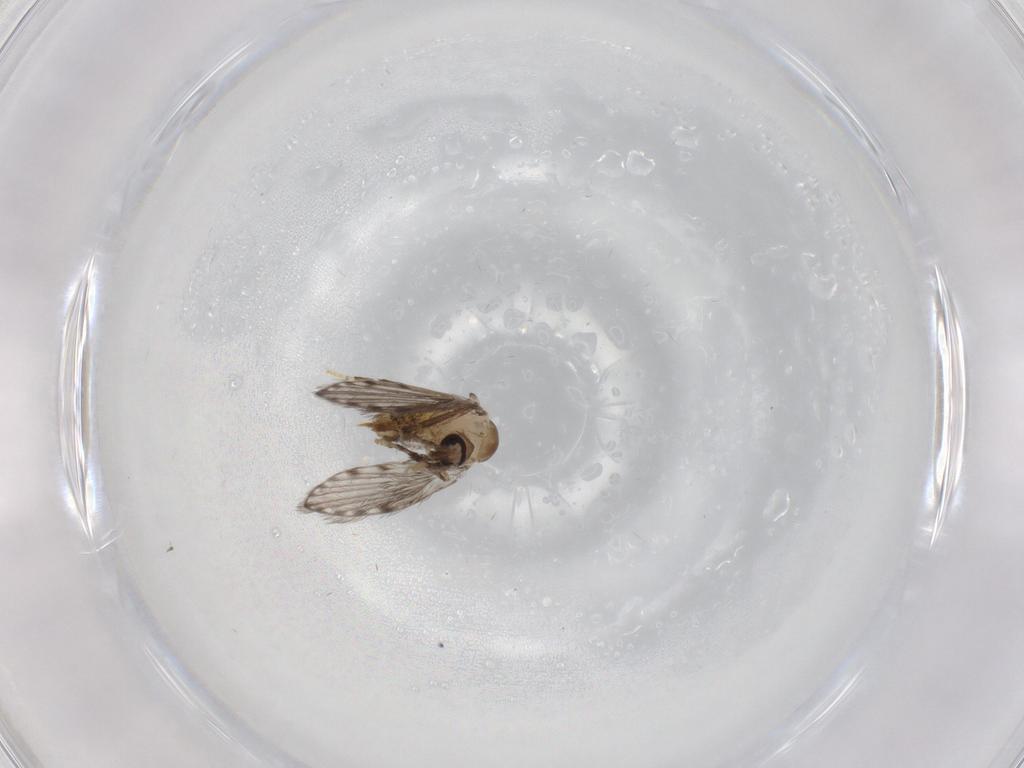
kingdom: Animalia
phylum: Arthropoda
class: Insecta
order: Diptera
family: Psychodidae
